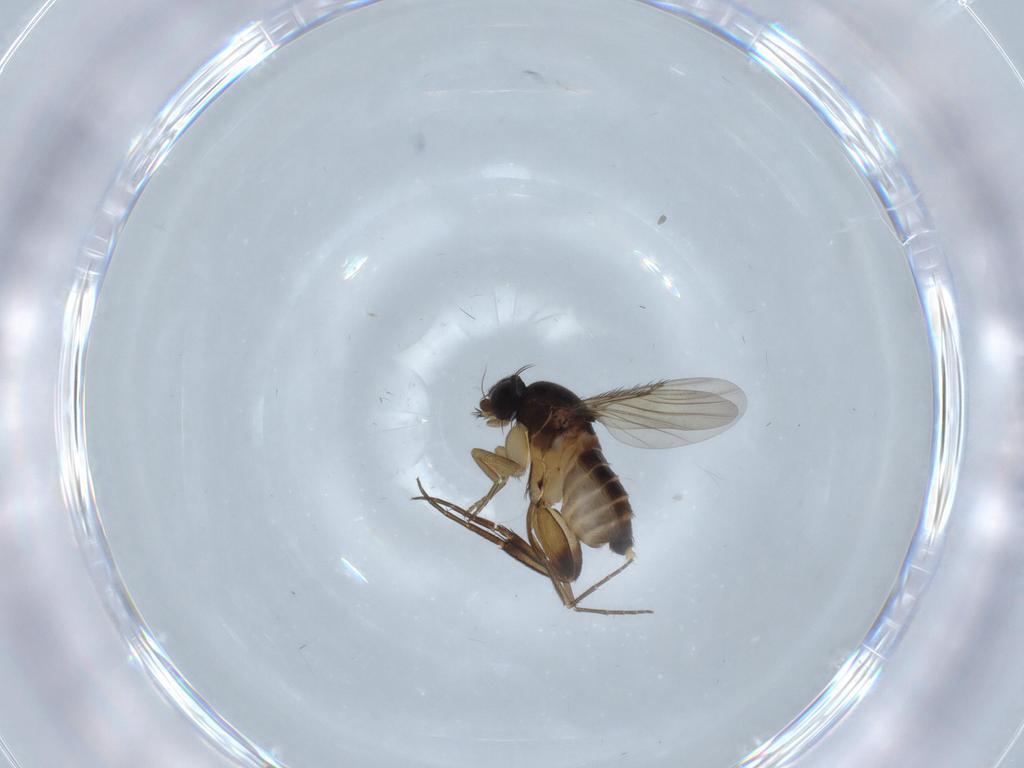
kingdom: Animalia
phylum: Arthropoda
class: Insecta
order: Diptera
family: Phoridae
